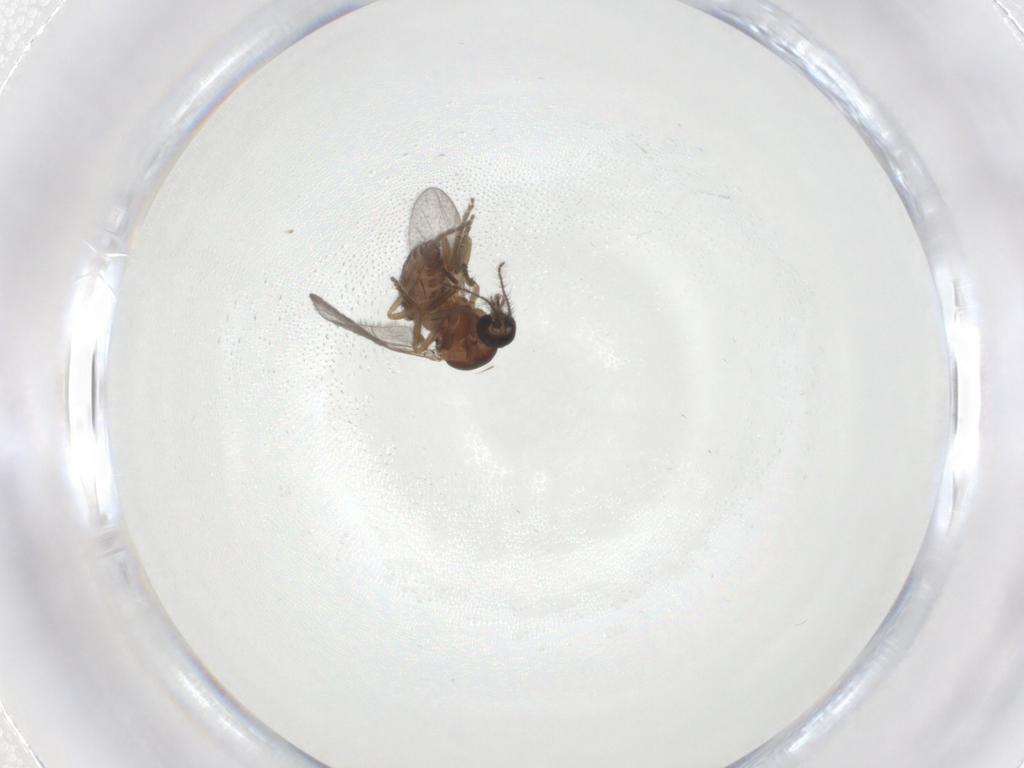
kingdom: Animalia
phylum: Arthropoda
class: Insecta
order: Diptera
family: Ceratopogonidae
